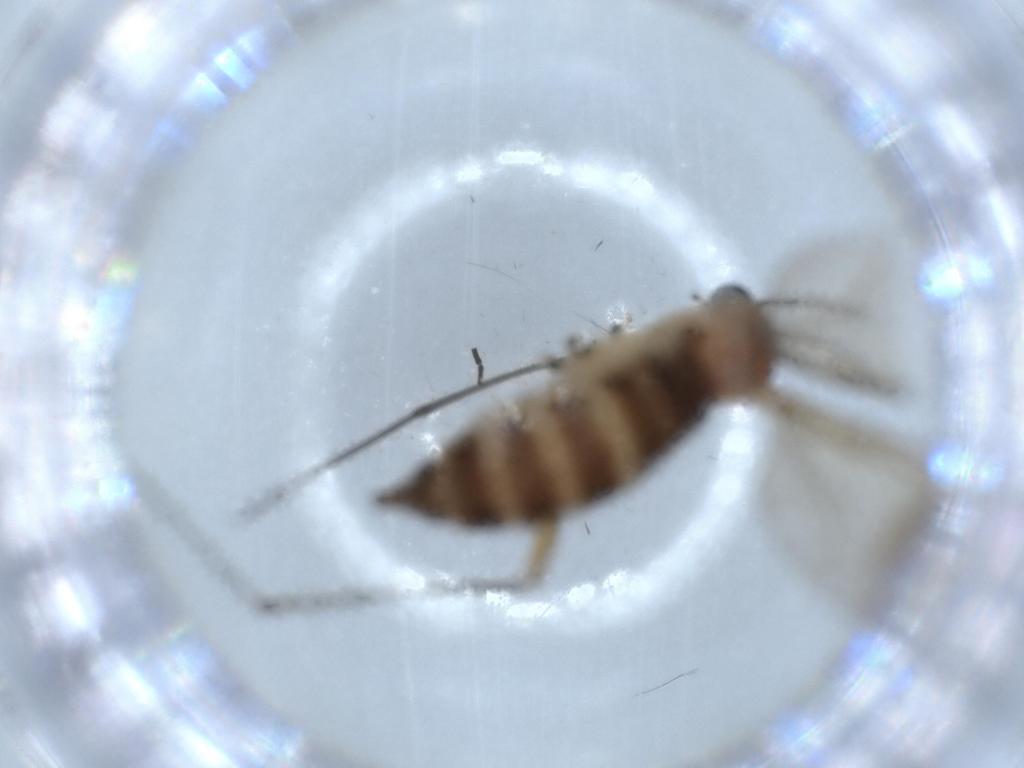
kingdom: Animalia
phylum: Arthropoda
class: Insecta
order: Diptera
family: Sciaridae
